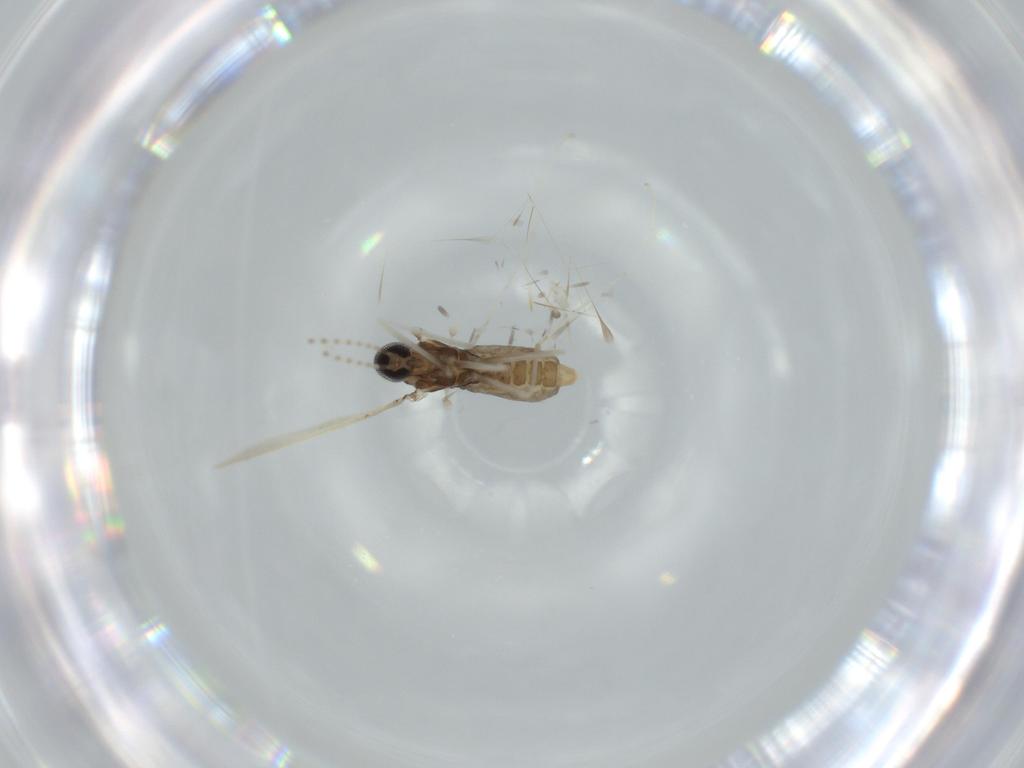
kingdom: Animalia
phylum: Arthropoda
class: Insecta
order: Diptera
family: Cecidomyiidae
